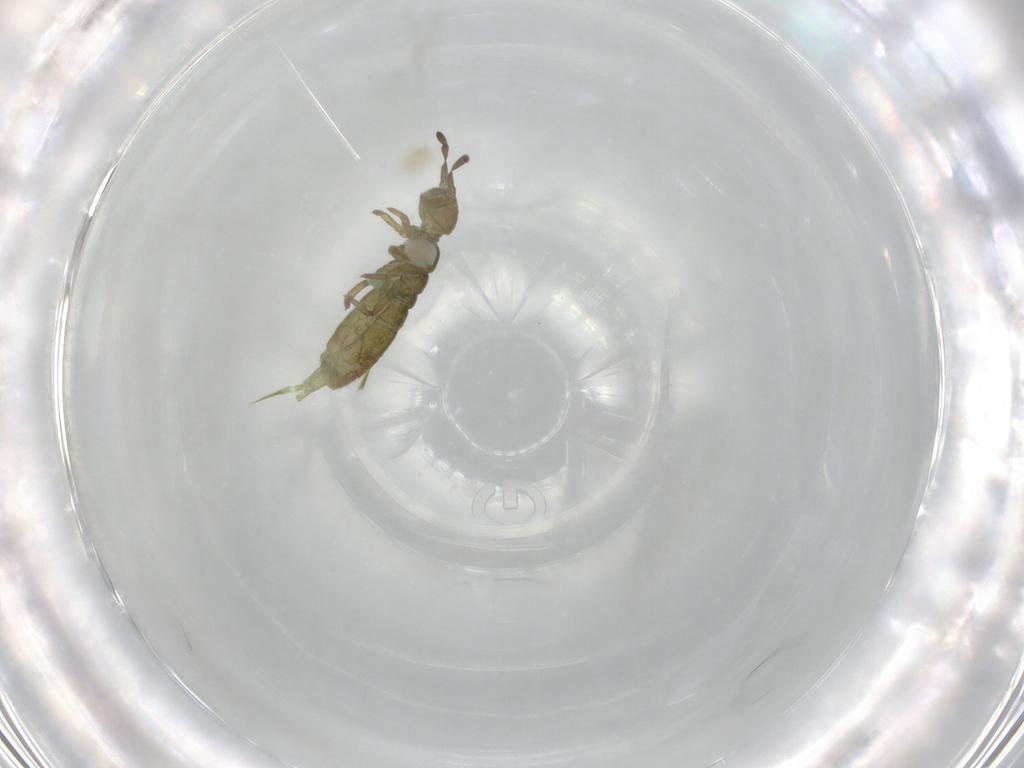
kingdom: Animalia
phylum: Arthropoda
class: Collembola
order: Entomobryomorpha
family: Isotomidae
